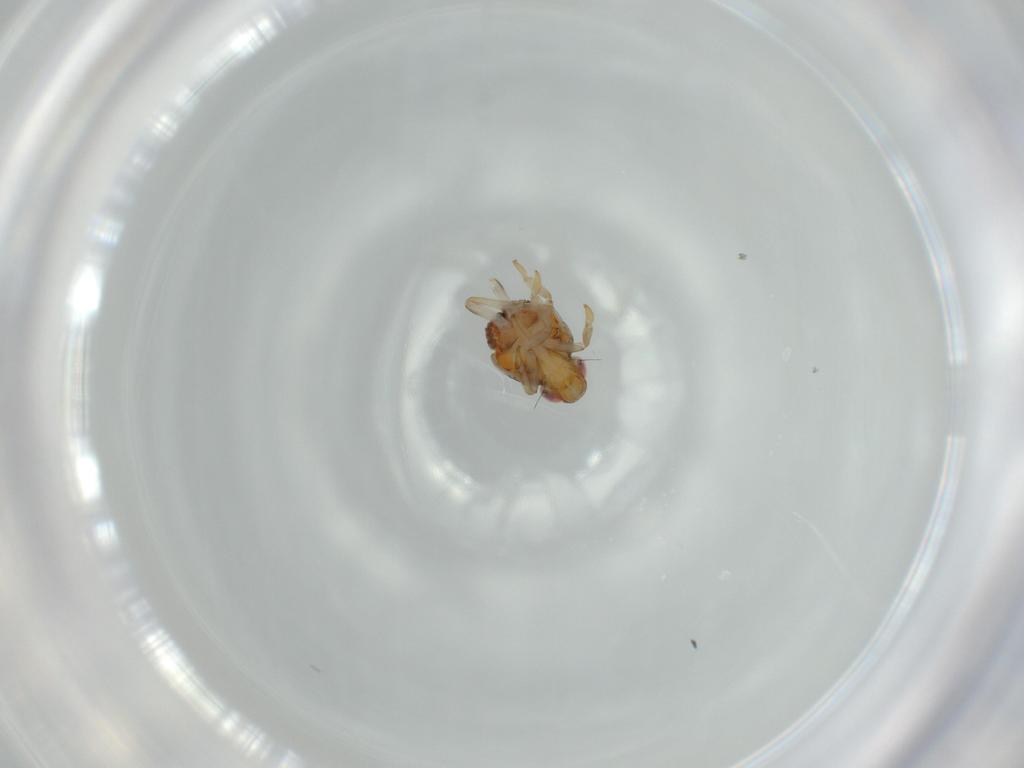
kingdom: Animalia
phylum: Arthropoda
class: Insecta
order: Hemiptera
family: Issidae
